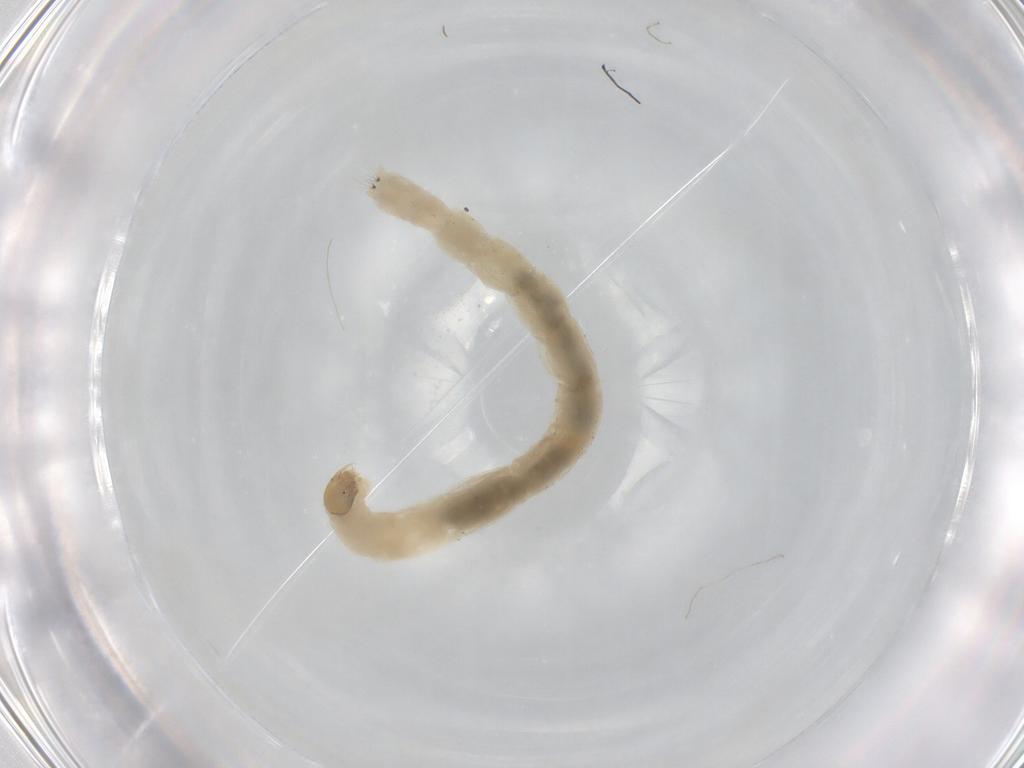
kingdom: Animalia
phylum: Arthropoda
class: Insecta
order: Diptera
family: Chironomidae
